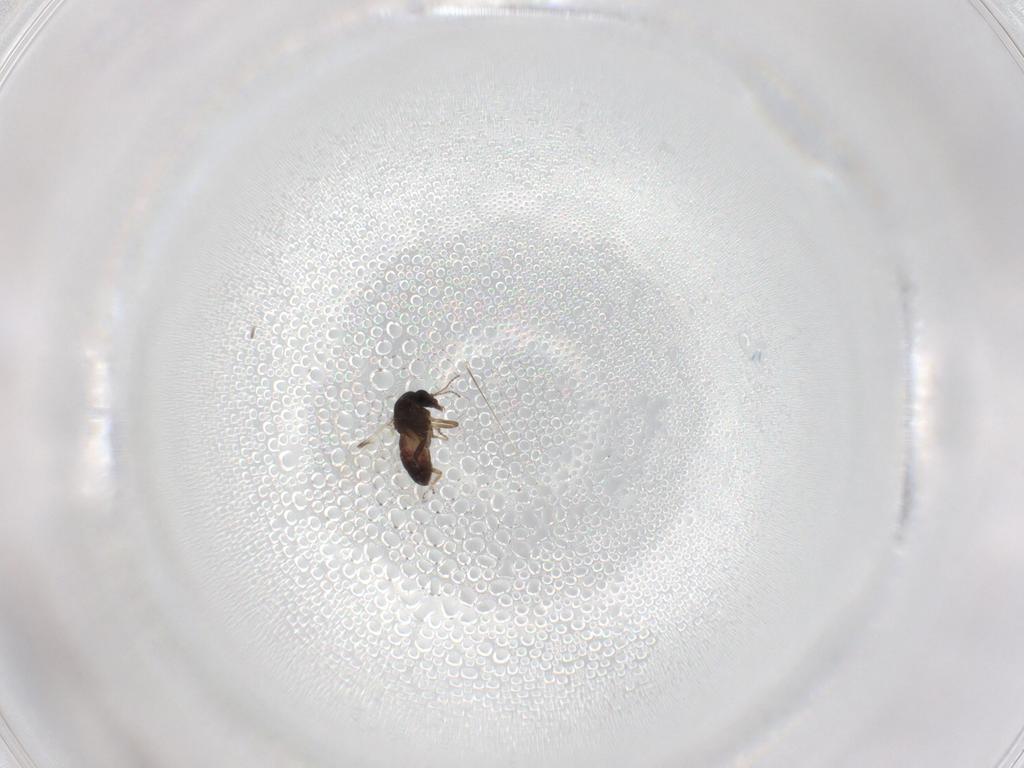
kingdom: Animalia
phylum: Arthropoda
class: Insecta
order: Diptera
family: Ceratopogonidae
